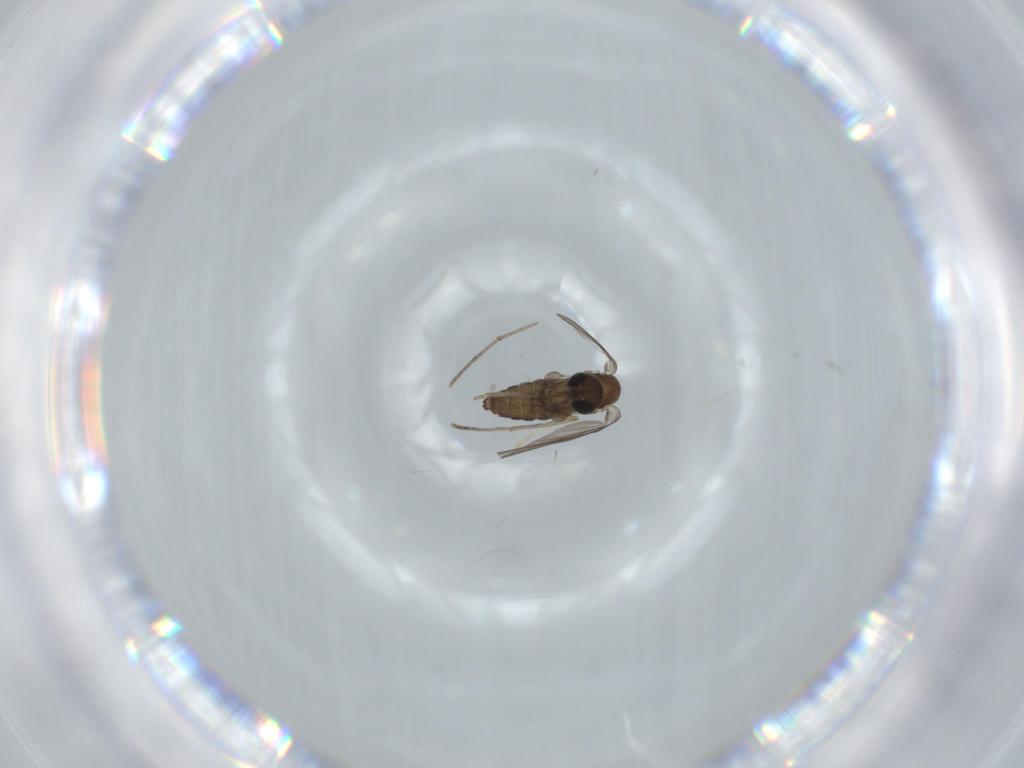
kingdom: Animalia
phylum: Arthropoda
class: Insecta
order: Diptera
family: Psychodidae
